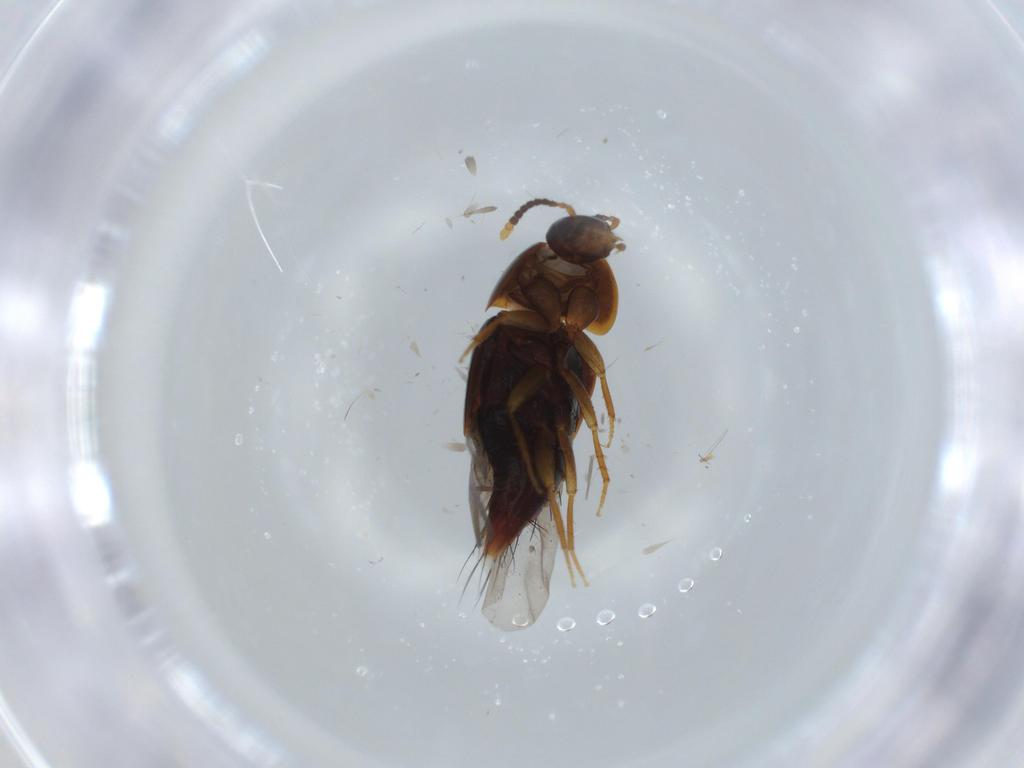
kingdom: Animalia
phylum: Arthropoda
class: Insecta
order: Coleoptera
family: Staphylinidae
